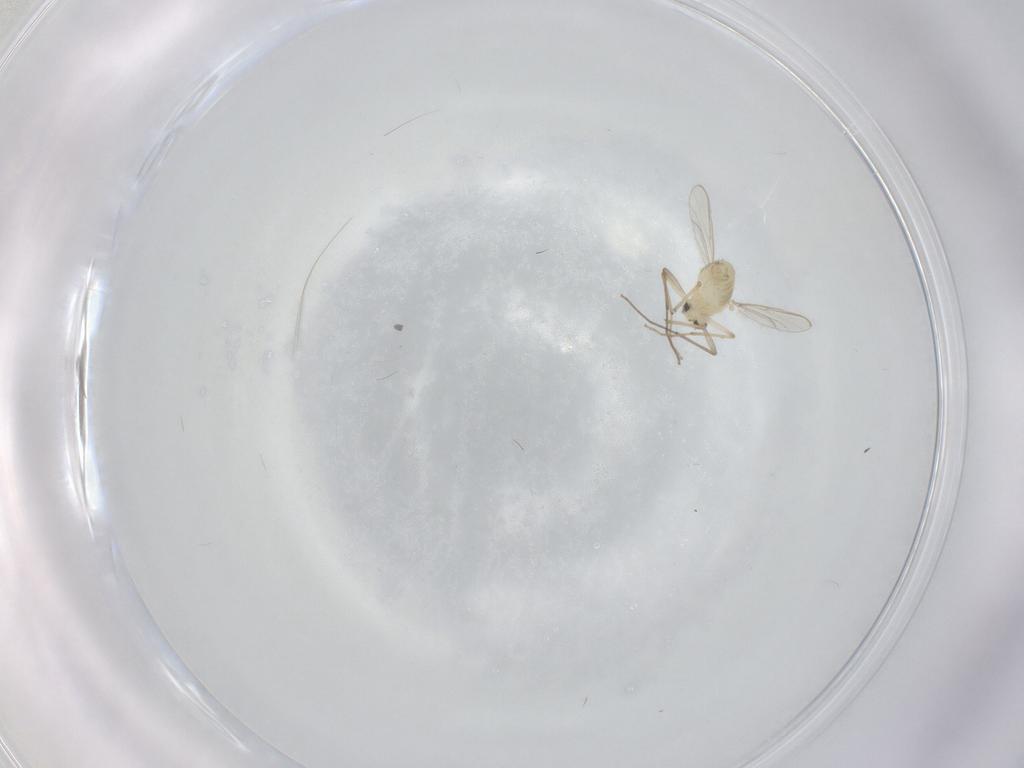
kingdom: Animalia
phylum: Arthropoda
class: Insecta
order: Diptera
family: Chironomidae
